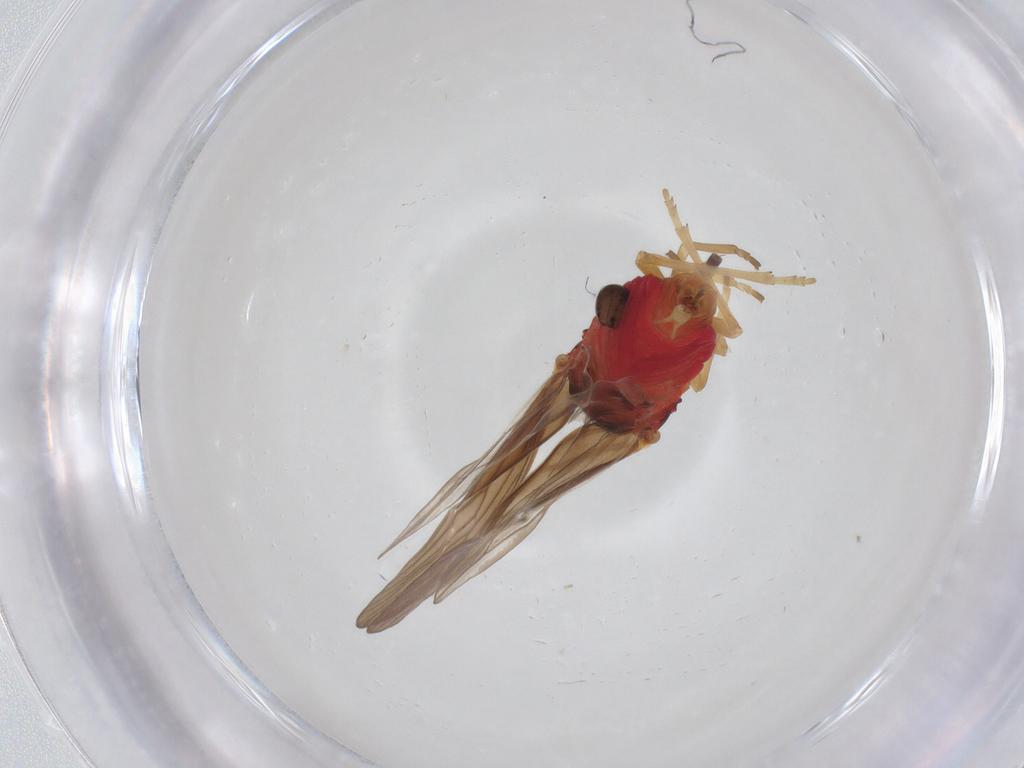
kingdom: Animalia
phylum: Arthropoda
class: Insecta
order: Hemiptera
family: Derbidae
